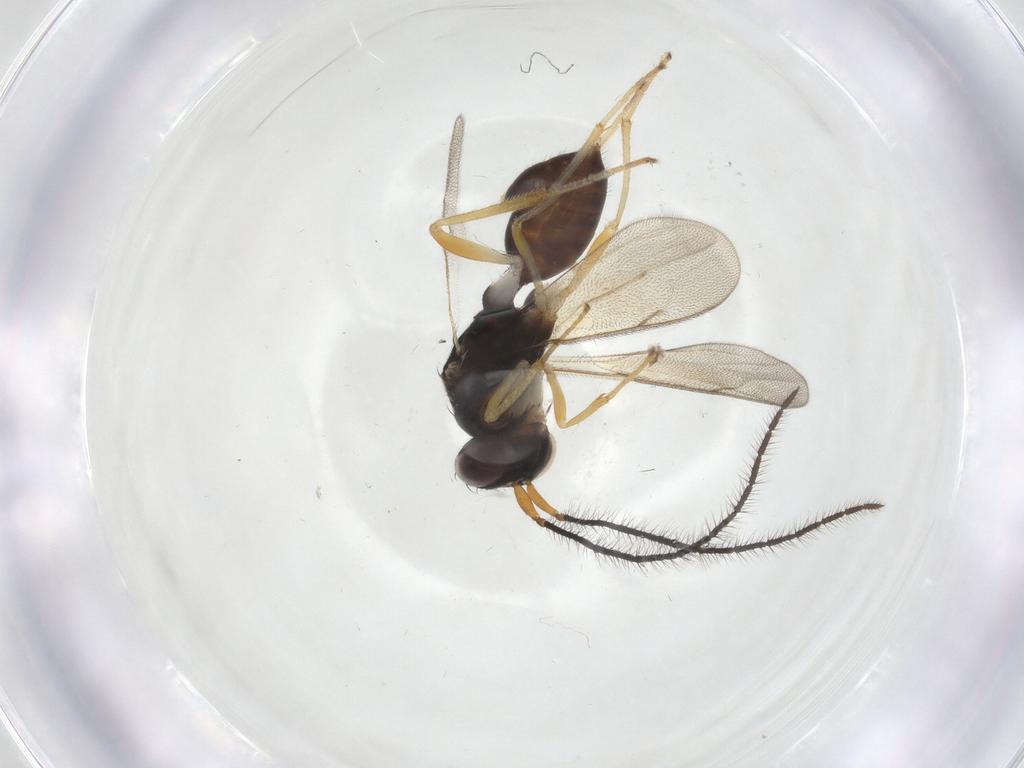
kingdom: Animalia
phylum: Arthropoda
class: Insecta
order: Hymenoptera
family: Diparidae
